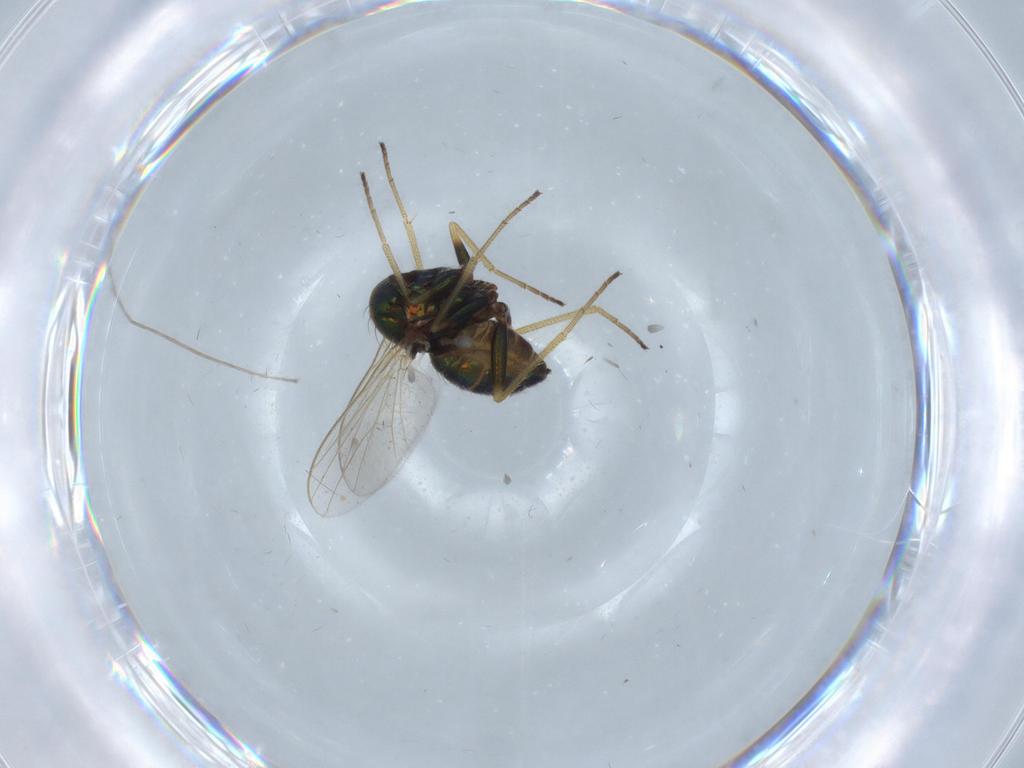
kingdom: Animalia
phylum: Arthropoda
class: Insecta
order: Diptera
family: Dolichopodidae
